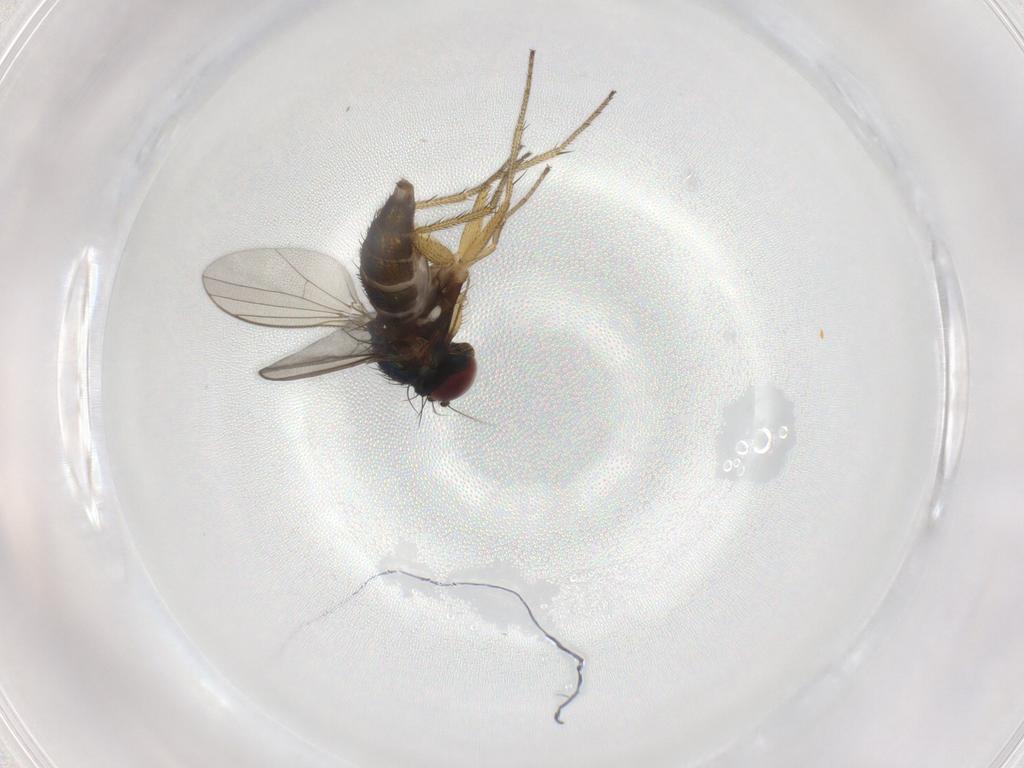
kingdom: Animalia
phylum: Arthropoda
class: Insecta
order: Diptera
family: Dolichopodidae
